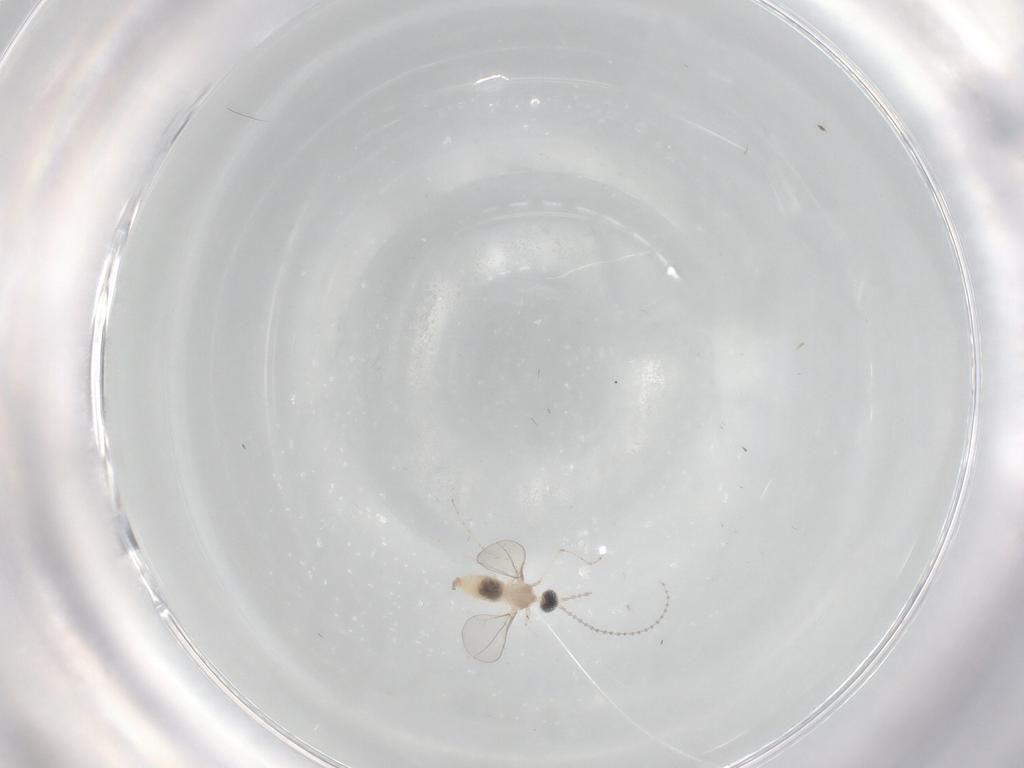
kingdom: Animalia
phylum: Arthropoda
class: Insecta
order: Diptera
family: Cecidomyiidae
